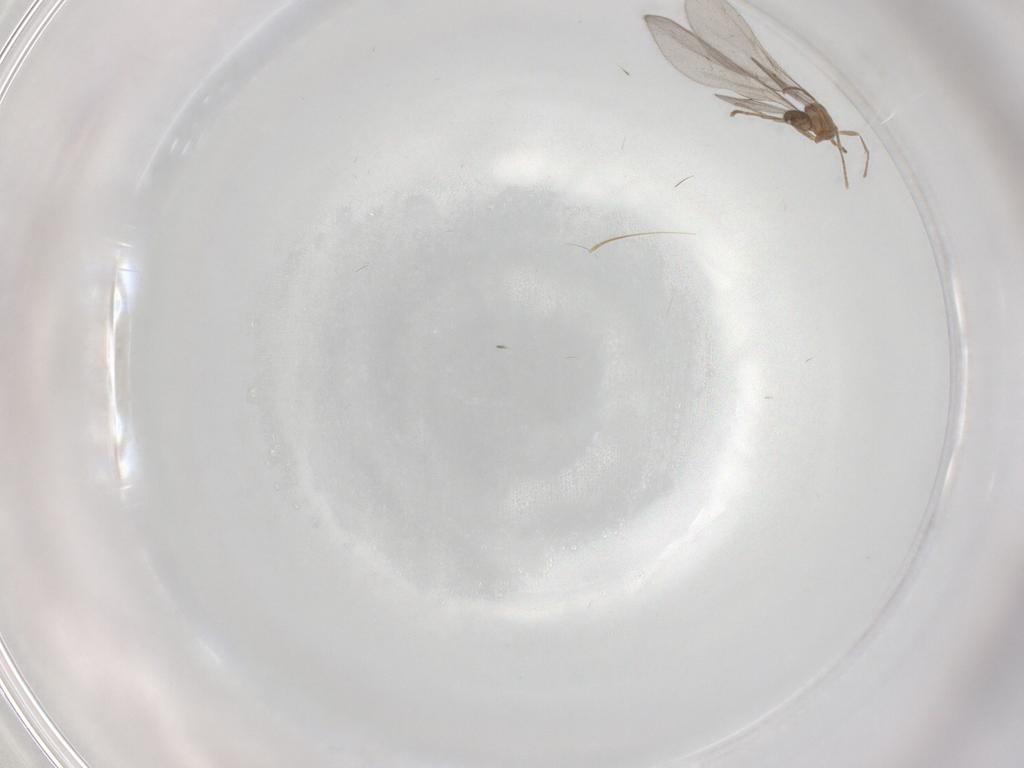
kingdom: Animalia
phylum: Arthropoda
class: Insecta
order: Hymenoptera
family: Formicidae
